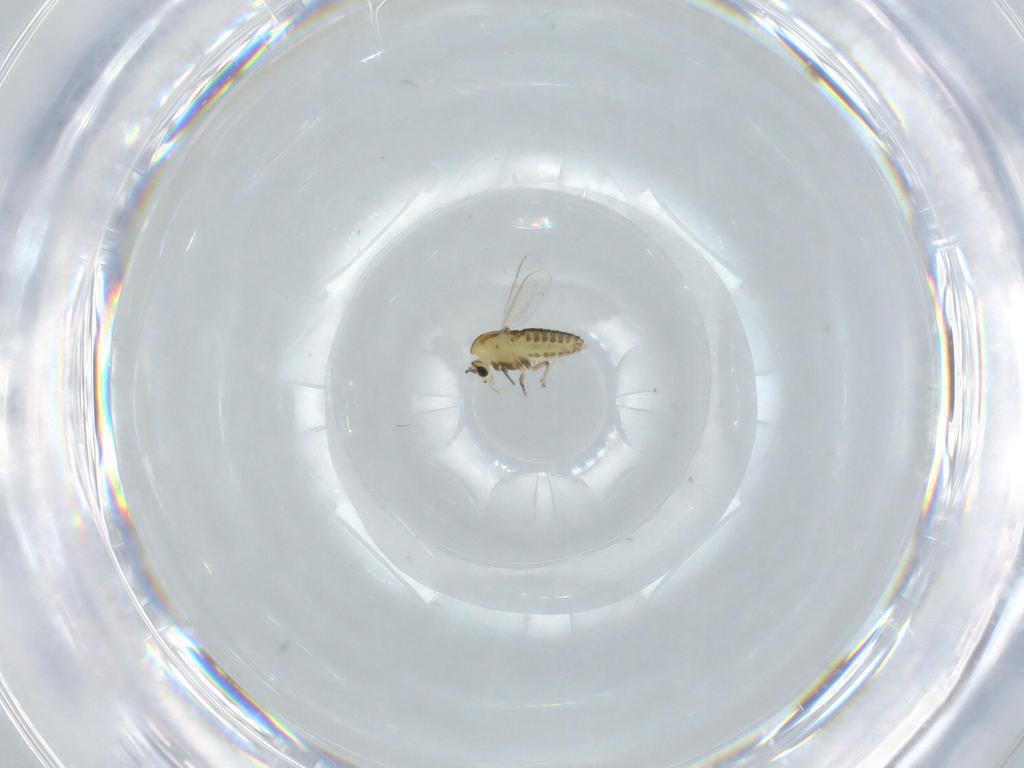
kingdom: Animalia
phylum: Arthropoda
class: Insecta
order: Diptera
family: Chironomidae
